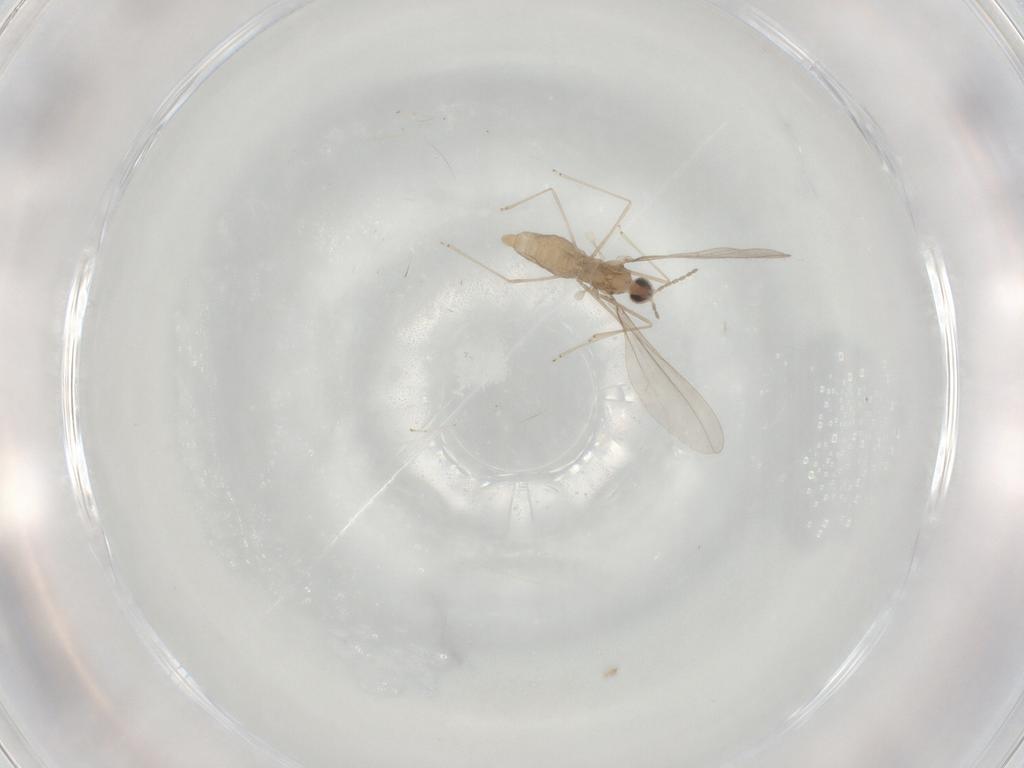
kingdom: Animalia
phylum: Arthropoda
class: Insecta
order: Diptera
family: Cecidomyiidae
